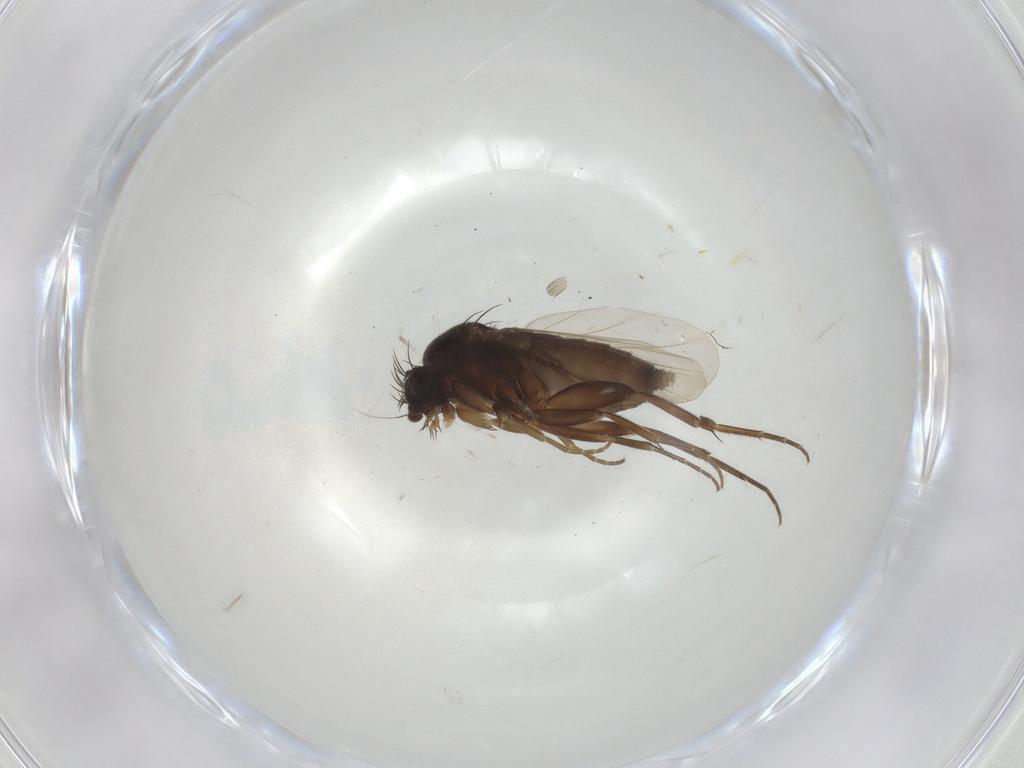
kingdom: Animalia
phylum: Arthropoda
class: Insecta
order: Diptera
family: Phoridae
